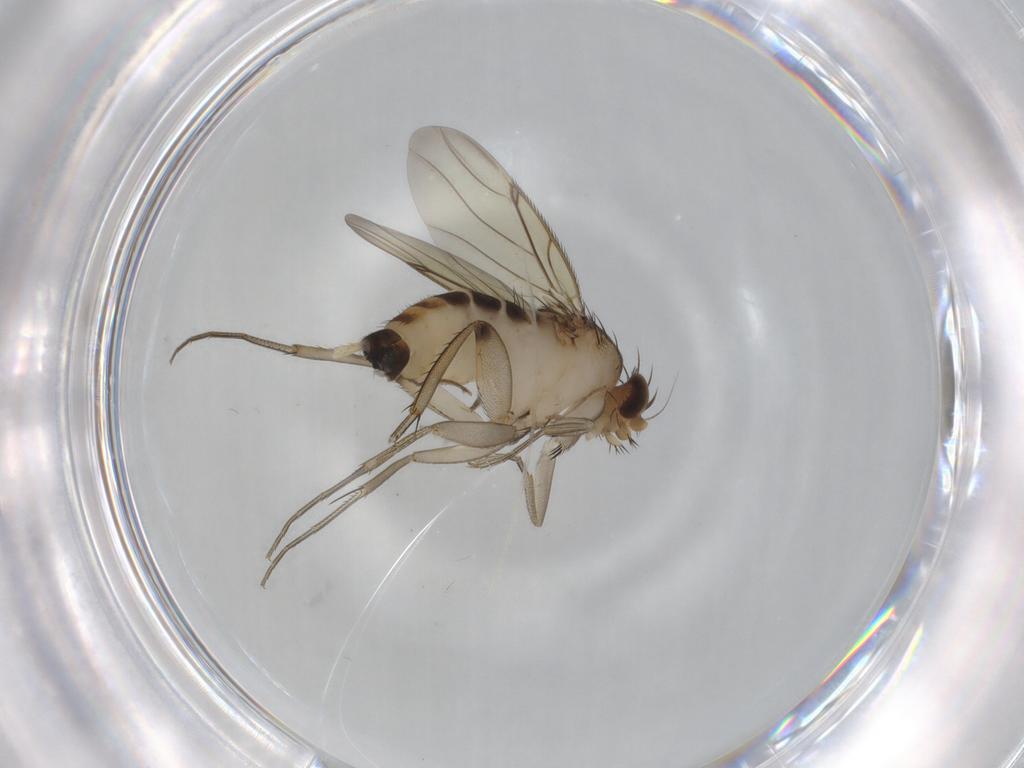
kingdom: Animalia
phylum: Arthropoda
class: Insecta
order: Diptera
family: Phoridae
